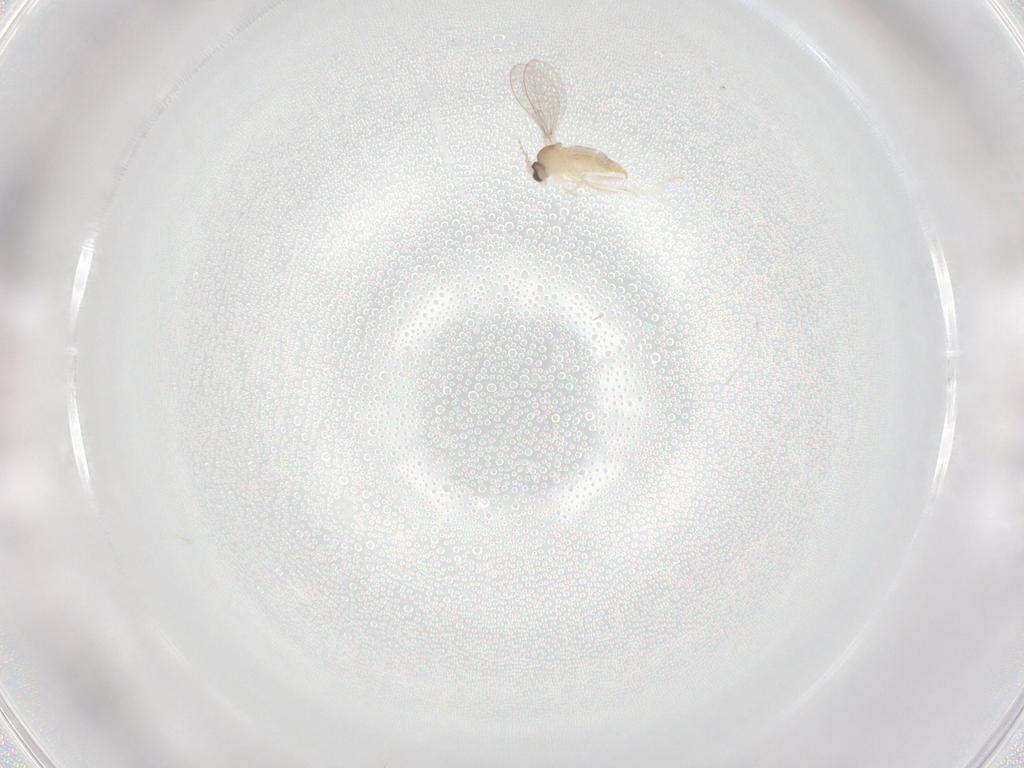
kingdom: Animalia
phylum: Arthropoda
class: Insecta
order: Diptera
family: Cecidomyiidae
